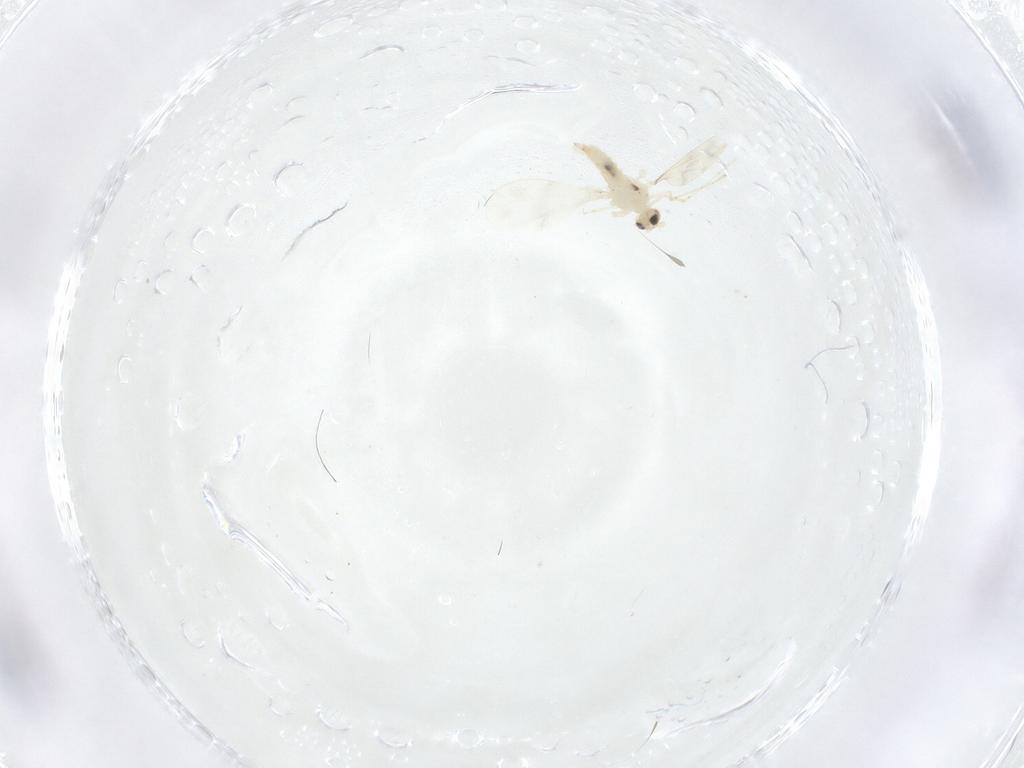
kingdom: Animalia
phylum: Arthropoda
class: Insecta
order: Diptera
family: Cecidomyiidae
